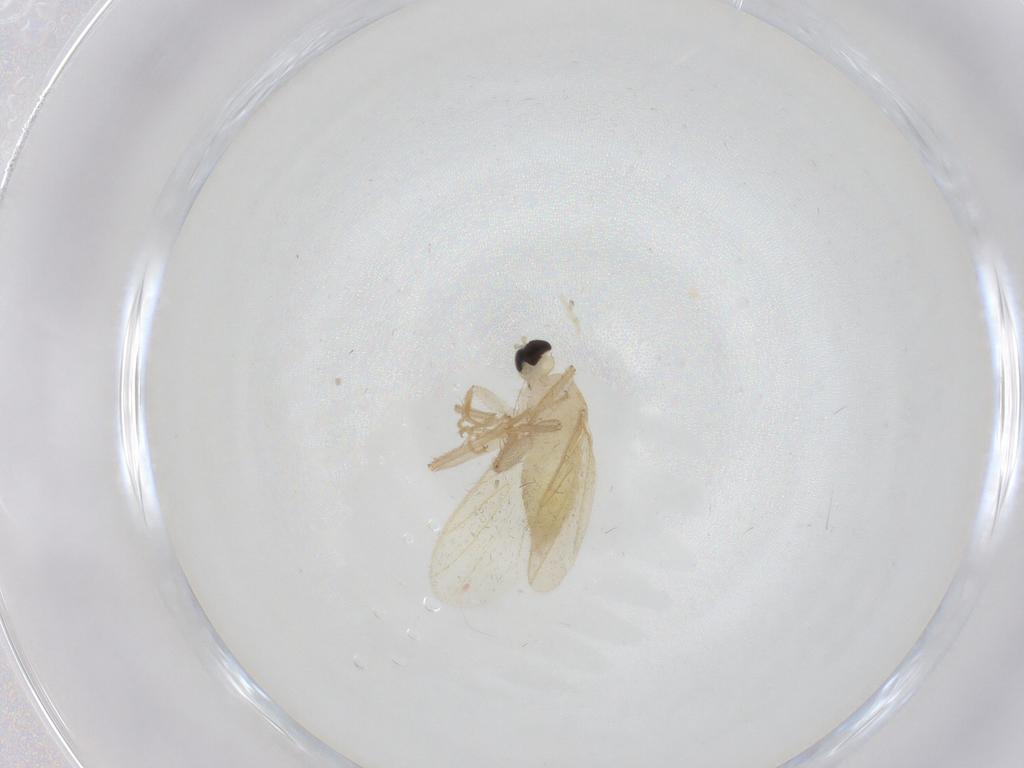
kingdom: Animalia
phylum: Arthropoda
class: Insecta
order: Diptera
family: Hybotidae
